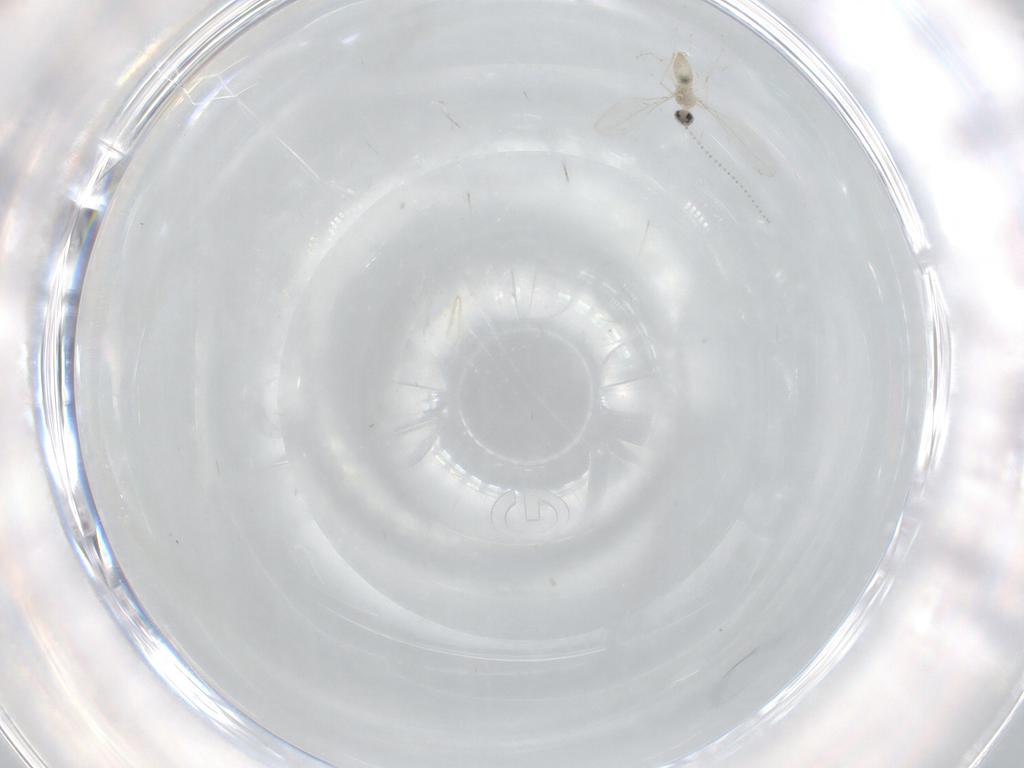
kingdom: Animalia
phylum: Arthropoda
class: Insecta
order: Diptera
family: Cecidomyiidae
